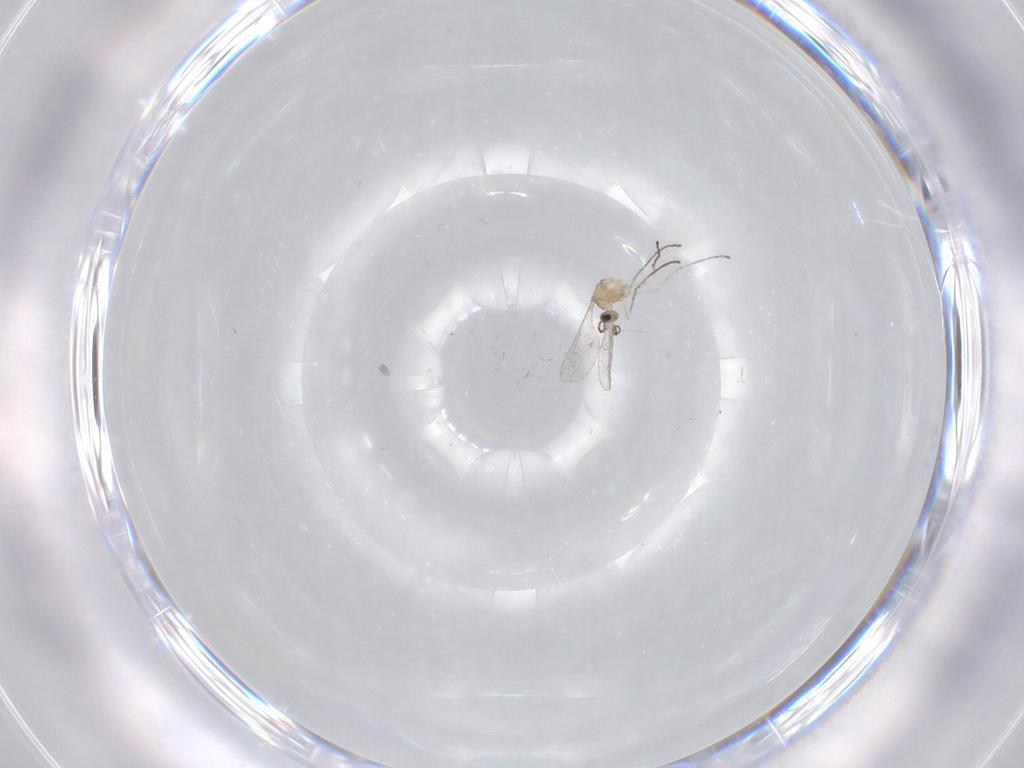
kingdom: Animalia
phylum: Arthropoda
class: Insecta
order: Diptera
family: Cecidomyiidae
